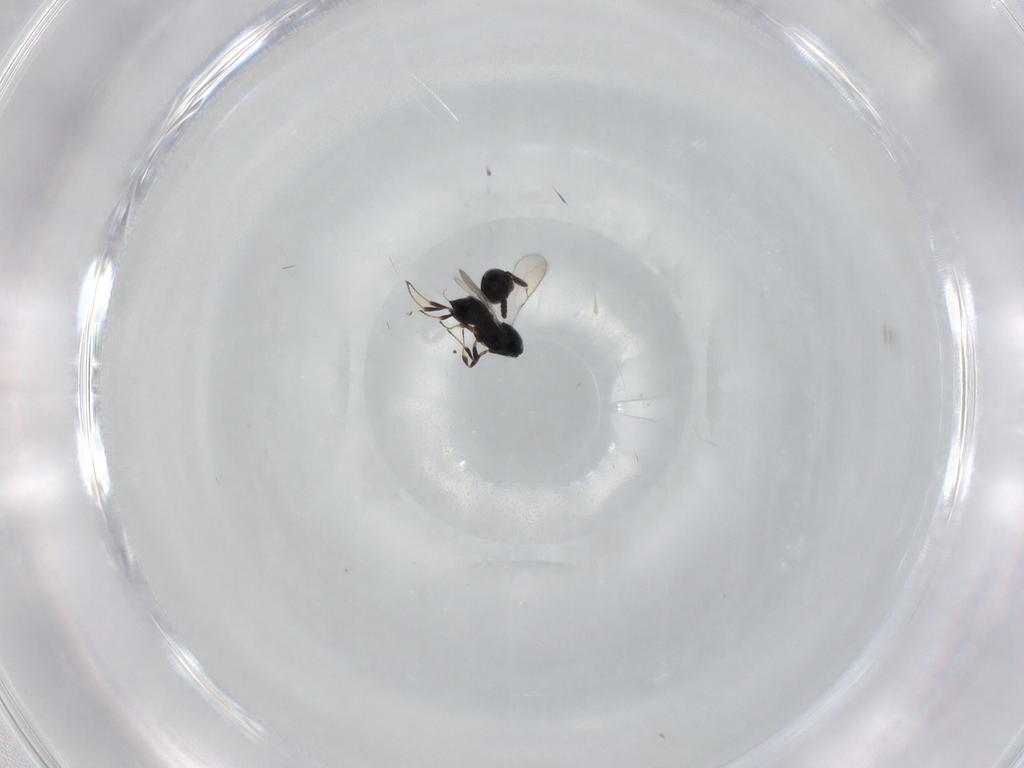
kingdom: Animalia
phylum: Arthropoda
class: Insecta
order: Hymenoptera
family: Scelionidae
